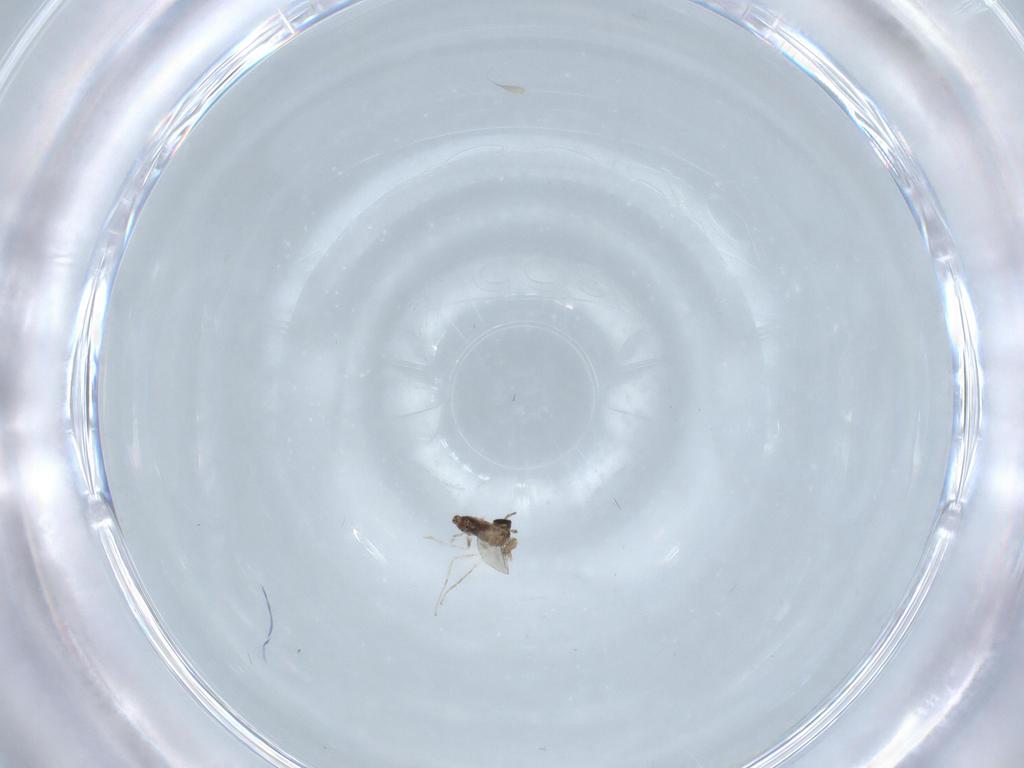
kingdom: Animalia
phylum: Arthropoda
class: Insecta
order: Diptera
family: Ceratopogonidae
